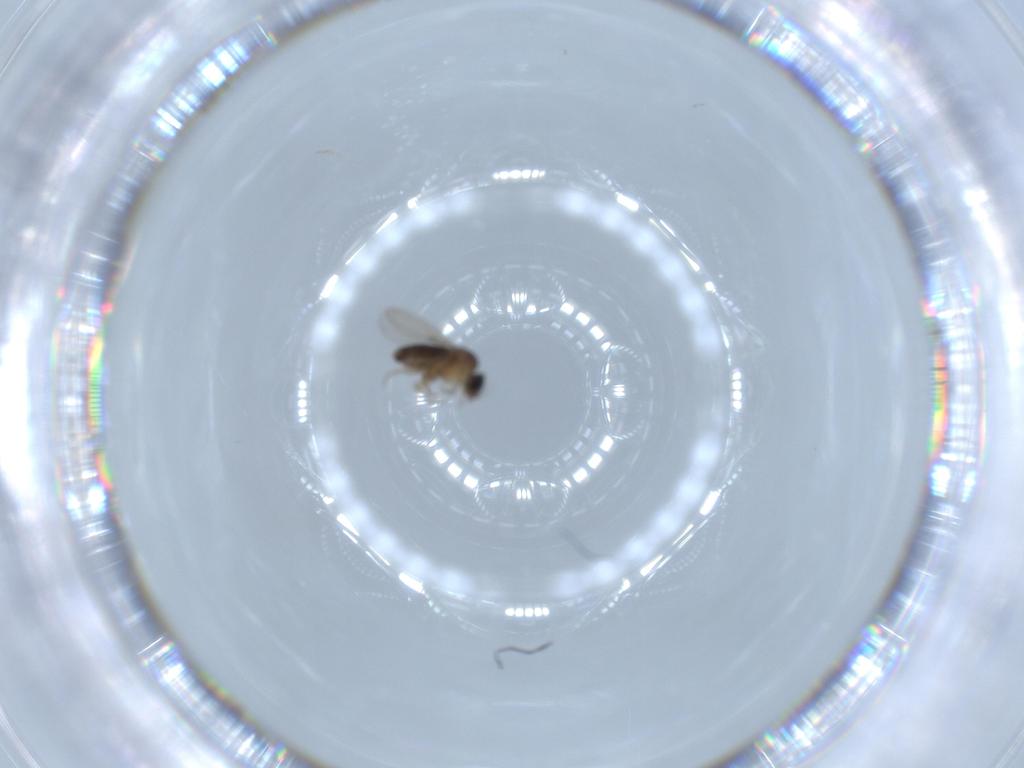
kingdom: Animalia
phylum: Arthropoda
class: Insecta
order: Diptera
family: Phoridae
